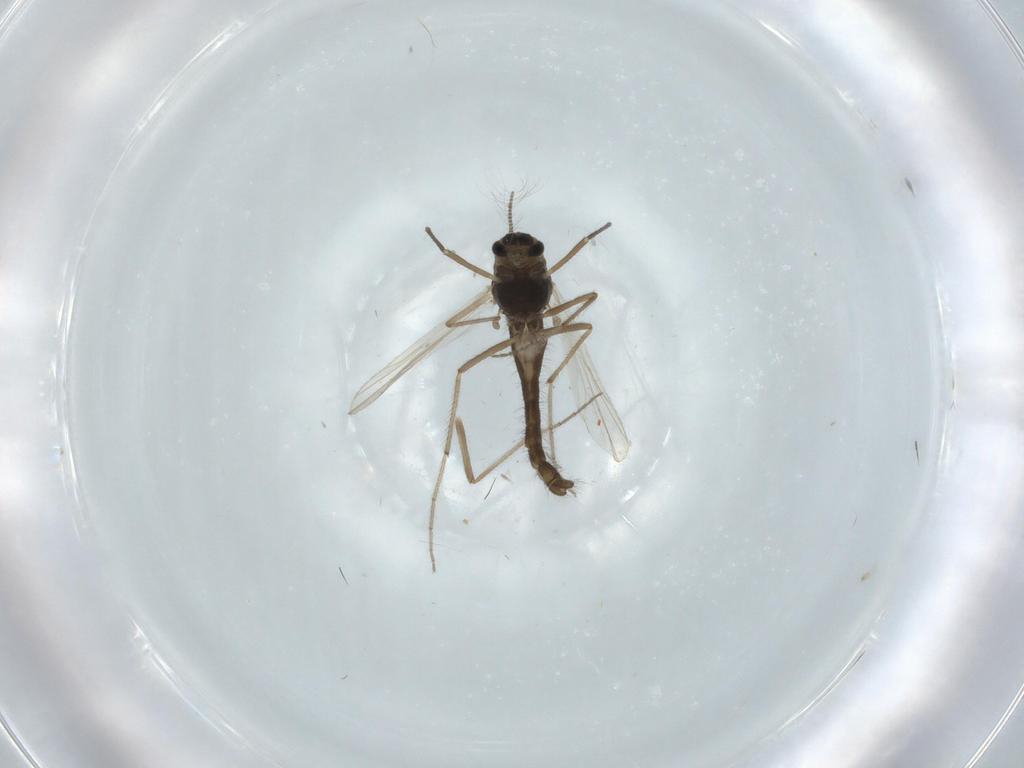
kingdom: Animalia
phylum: Arthropoda
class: Insecta
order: Diptera
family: Chironomidae
